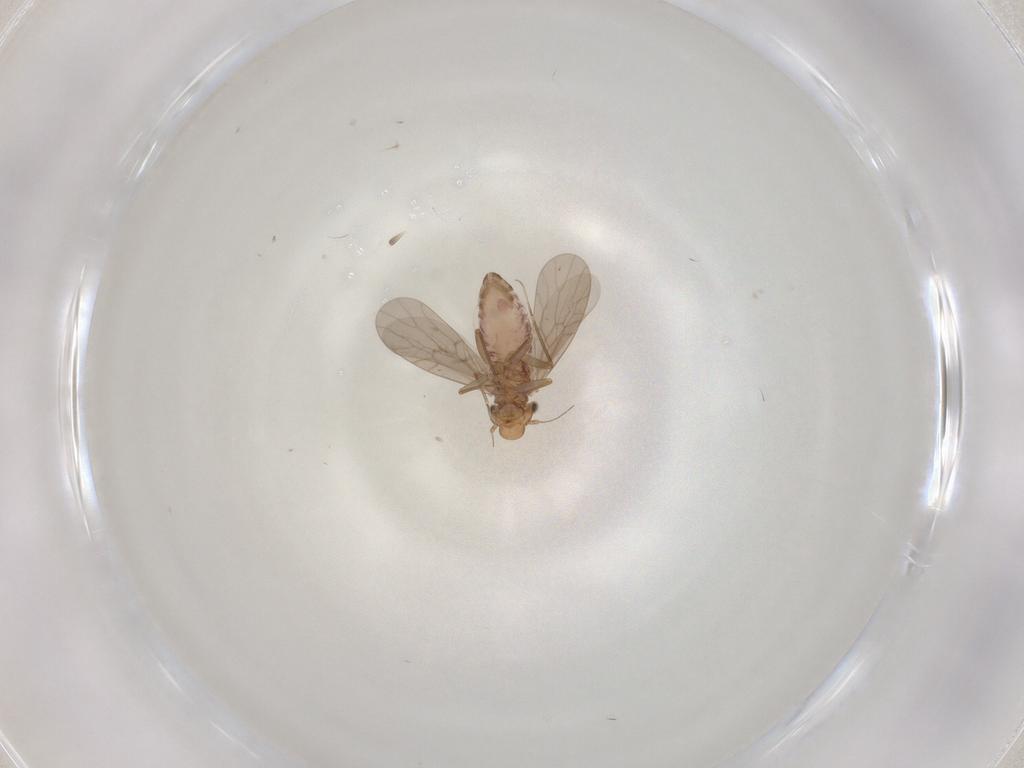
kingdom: Animalia
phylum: Arthropoda
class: Insecta
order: Psocodea
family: Lepidopsocidae
